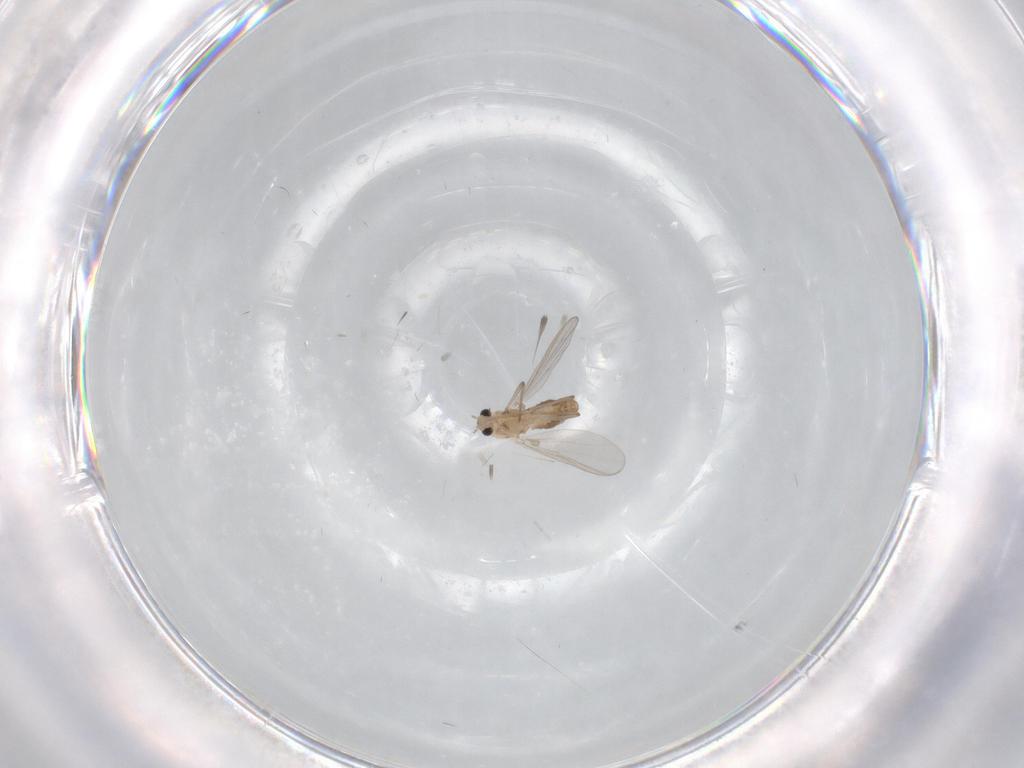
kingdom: Animalia
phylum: Arthropoda
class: Insecta
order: Diptera
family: Chironomidae
